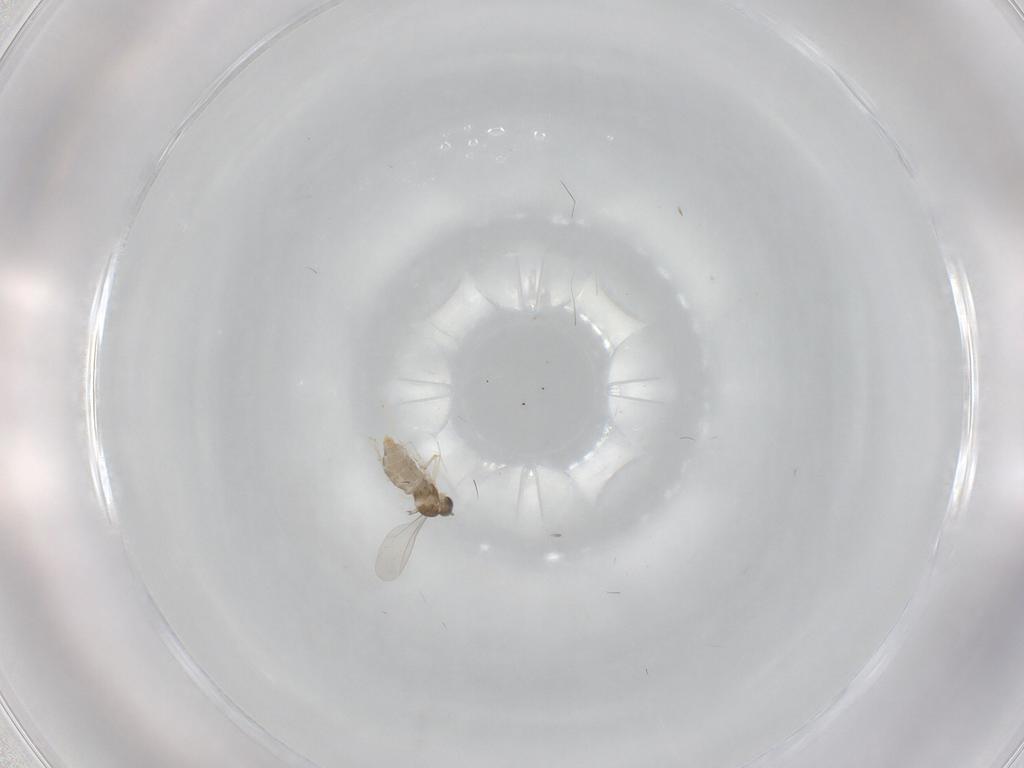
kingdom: Animalia
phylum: Arthropoda
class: Insecta
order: Diptera
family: Cecidomyiidae
